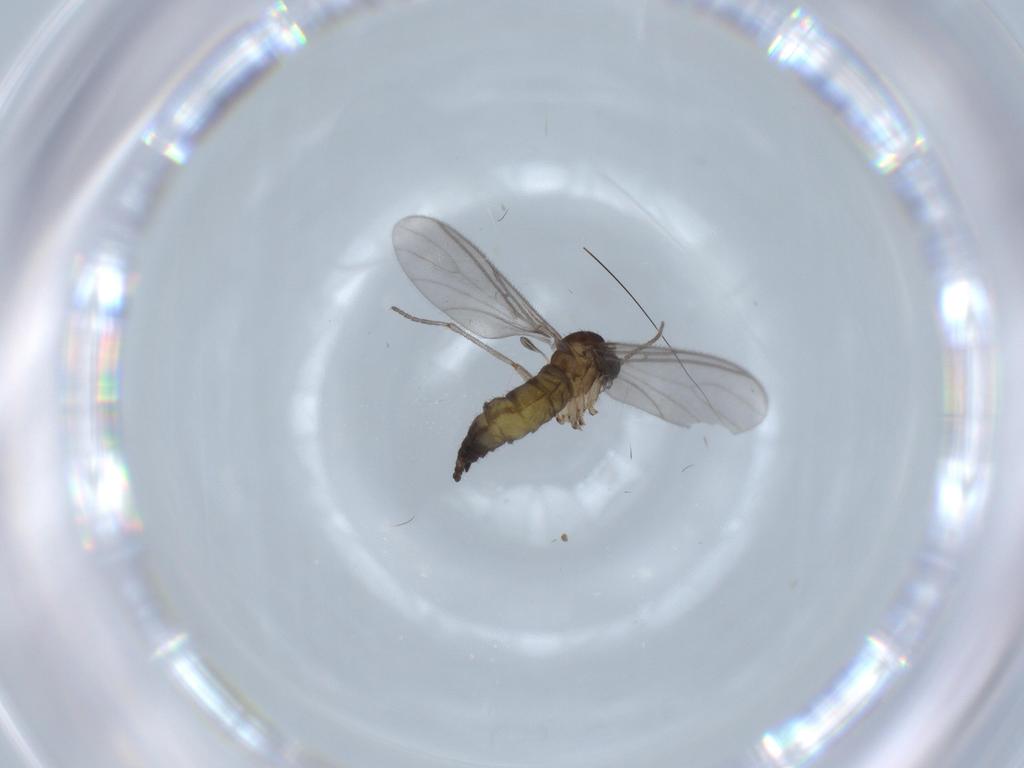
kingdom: Animalia
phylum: Arthropoda
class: Insecta
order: Diptera
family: Sciaridae
